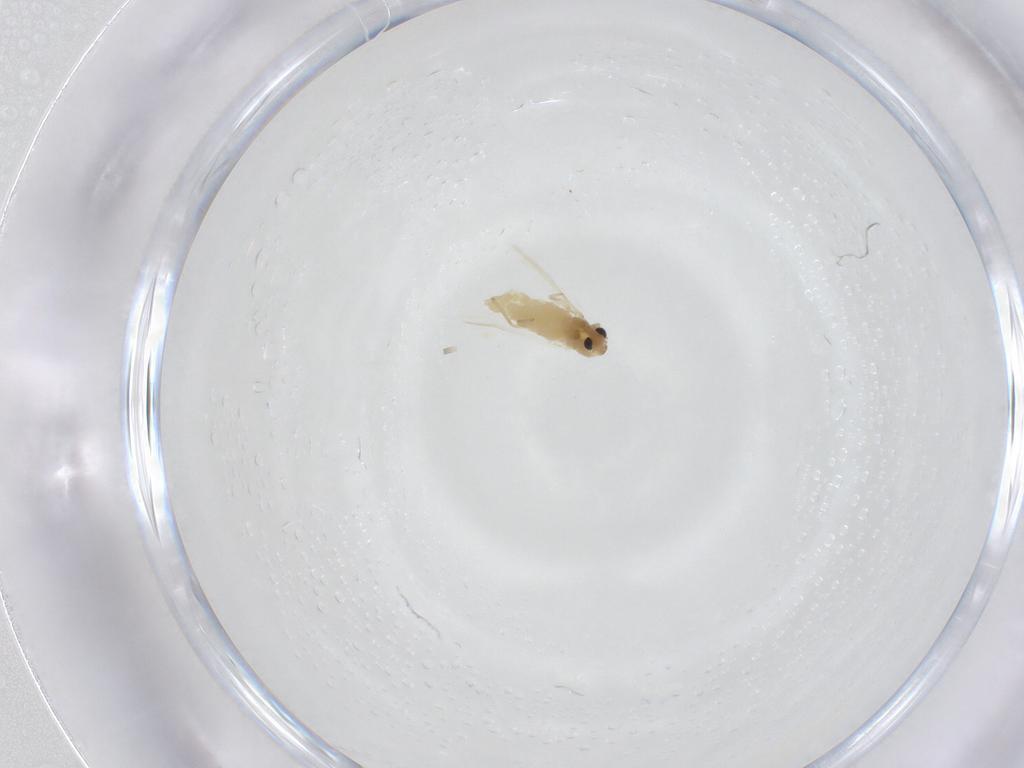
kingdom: Animalia
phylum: Arthropoda
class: Insecta
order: Diptera
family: Chironomidae
